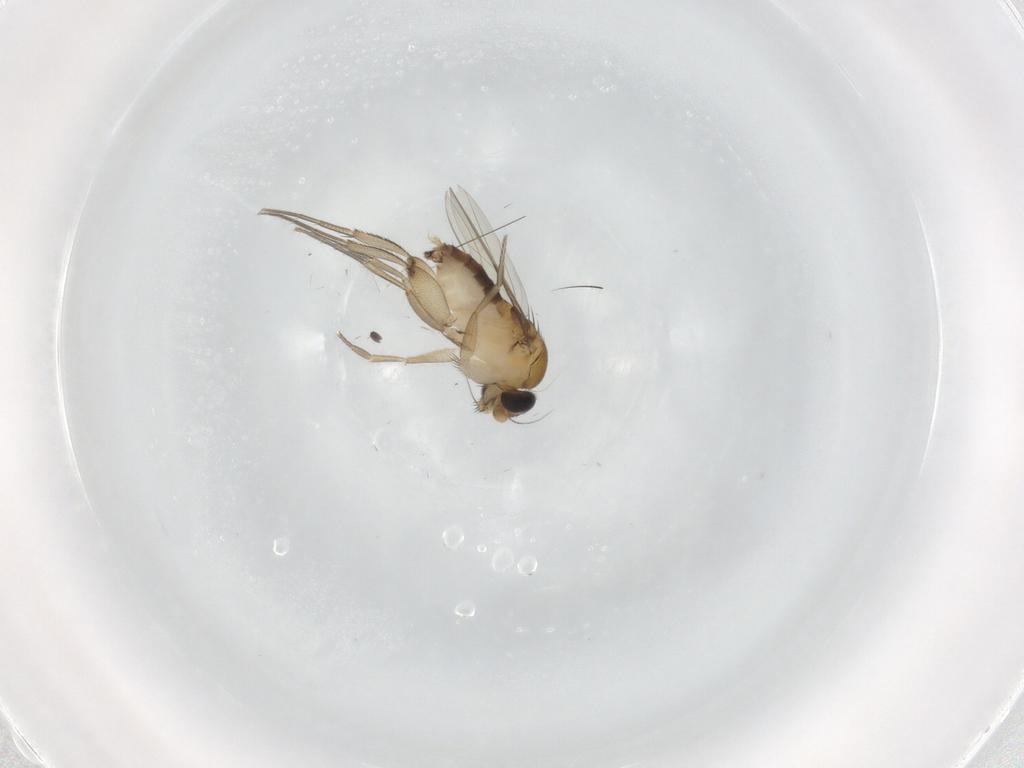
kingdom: Animalia
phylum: Arthropoda
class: Insecta
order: Diptera
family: Phoridae
